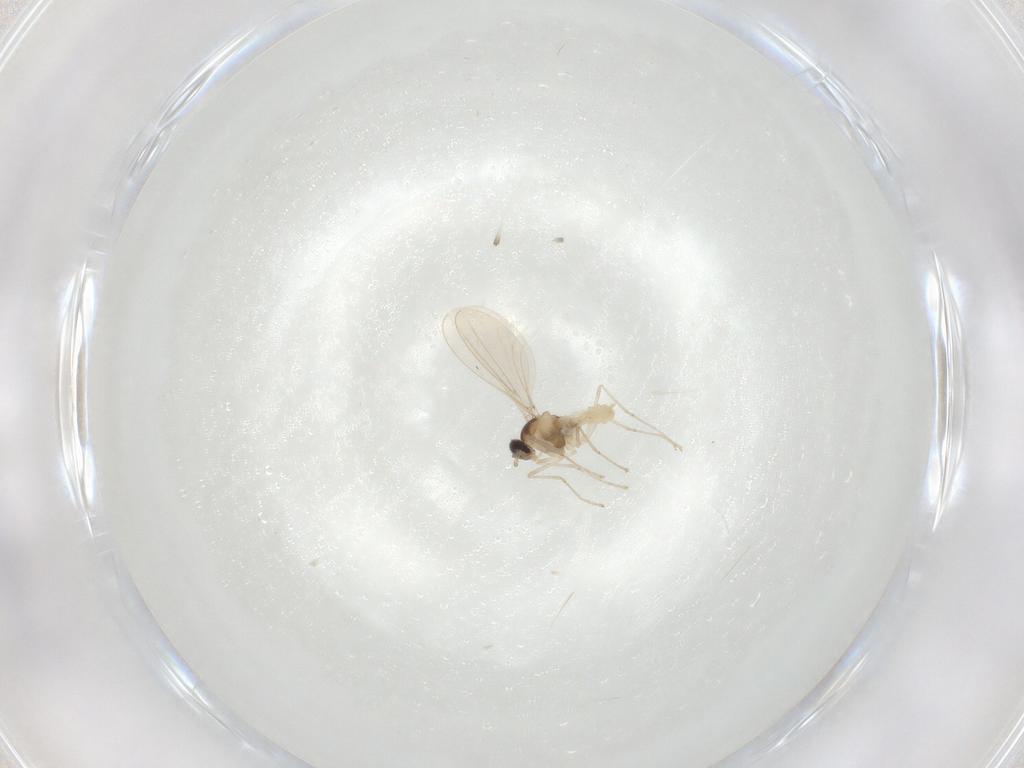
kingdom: Animalia
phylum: Arthropoda
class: Insecta
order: Diptera
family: Cecidomyiidae
